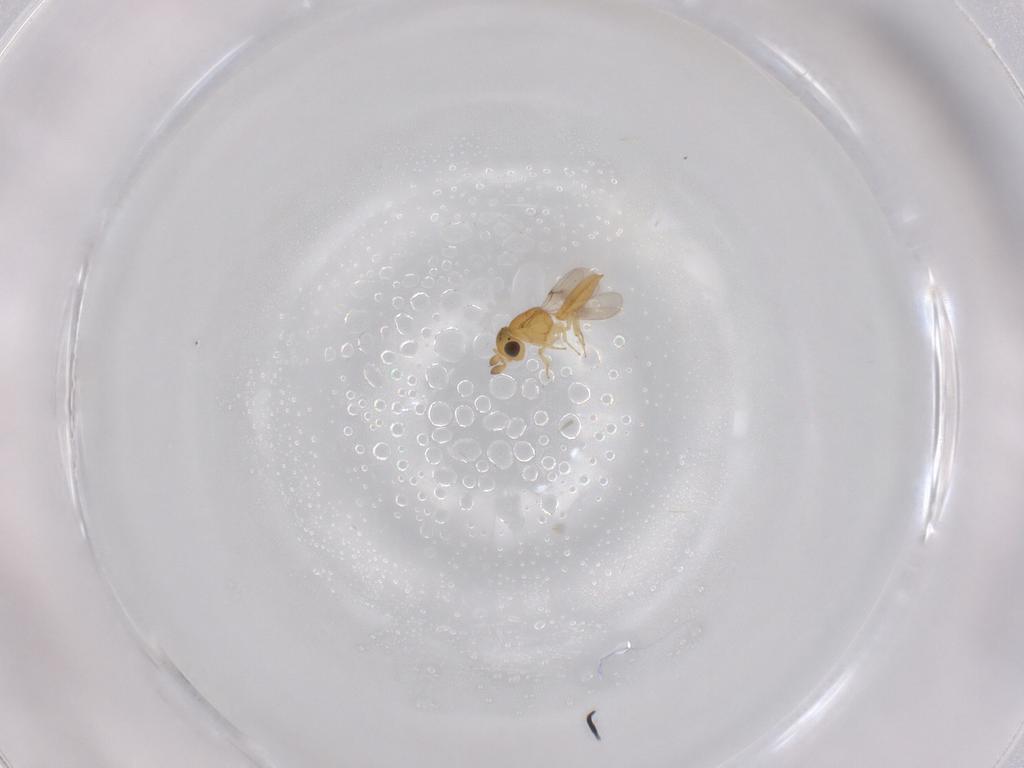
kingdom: Animalia
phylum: Arthropoda
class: Insecta
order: Hymenoptera
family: Scelionidae
